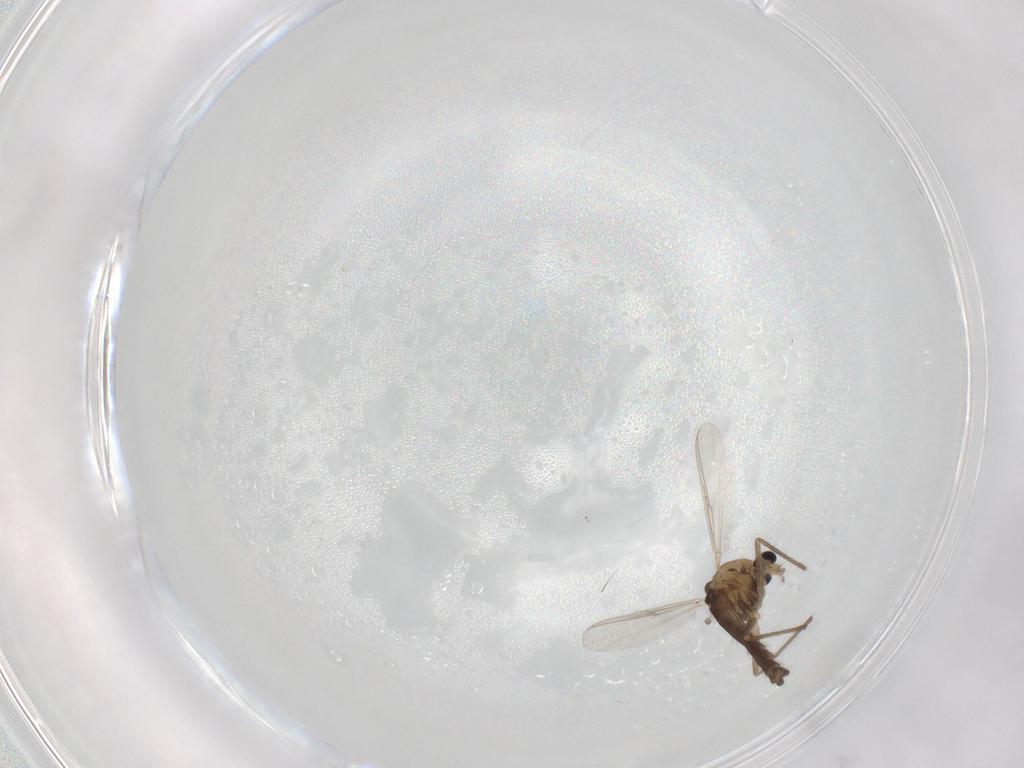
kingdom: Animalia
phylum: Arthropoda
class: Insecta
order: Diptera
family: Chironomidae
